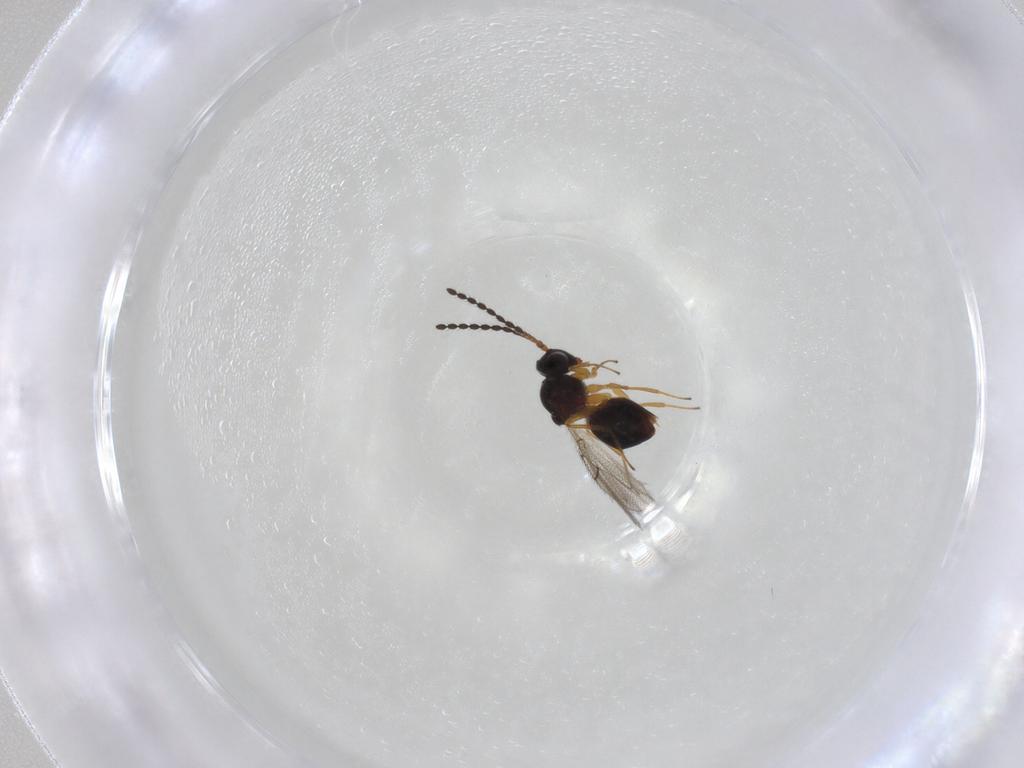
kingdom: Animalia
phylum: Arthropoda
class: Insecta
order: Hymenoptera
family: Figitidae
